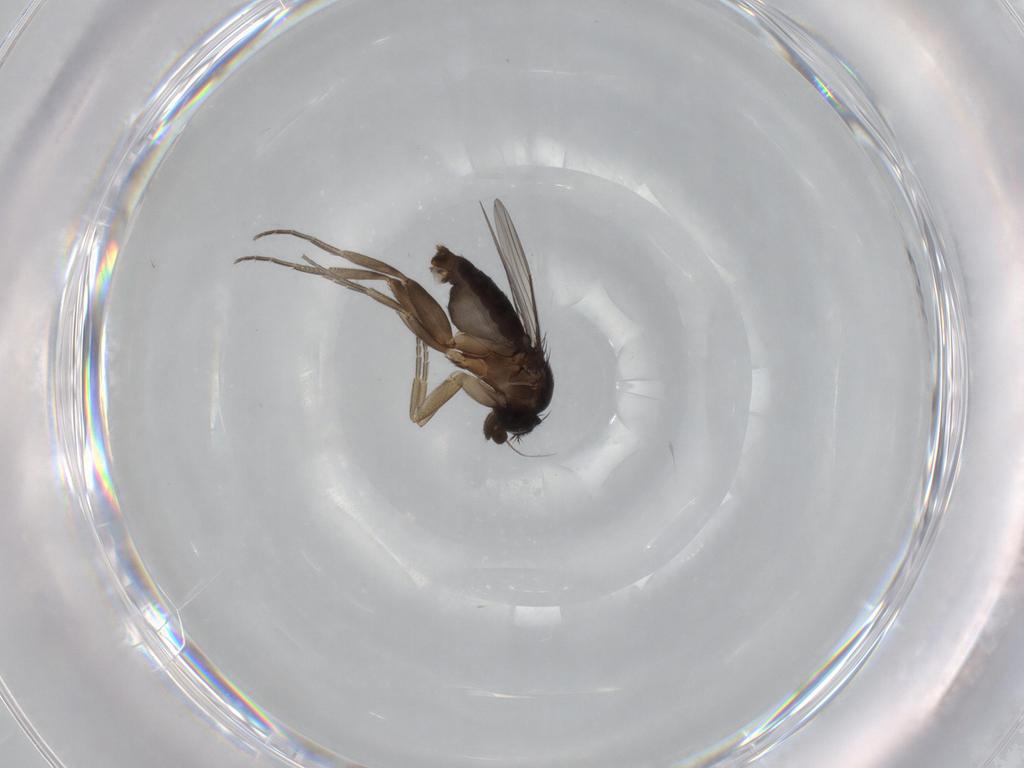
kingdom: Animalia
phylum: Arthropoda
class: Insecta
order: Diptera
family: Phoridae
